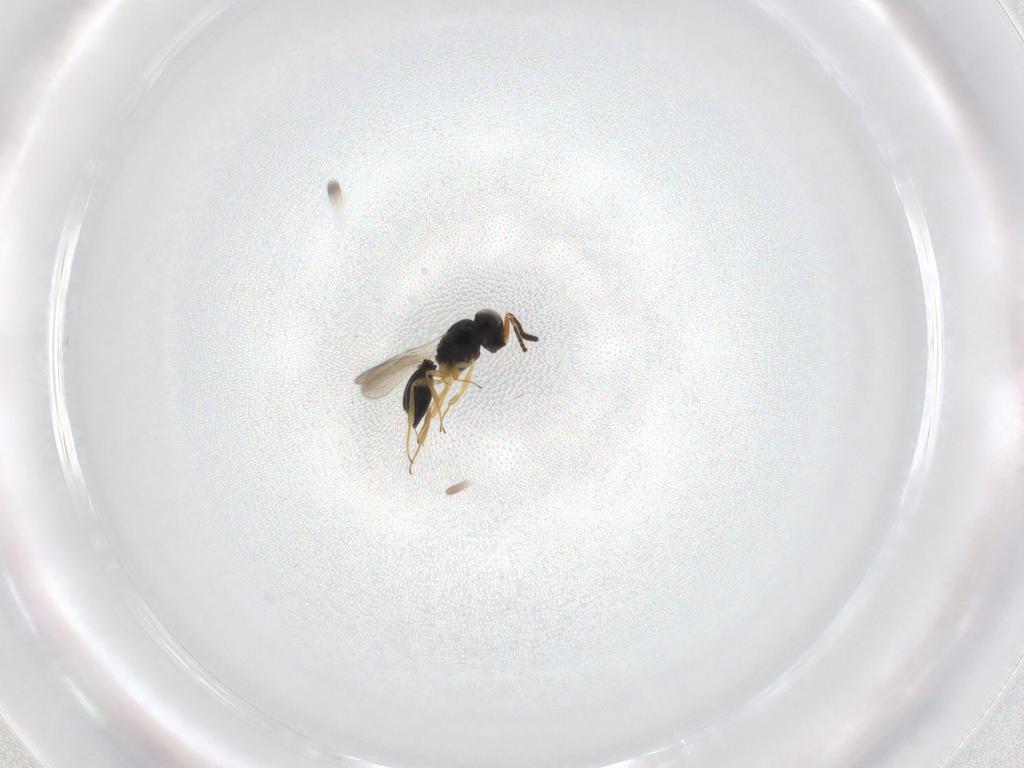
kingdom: Animalia
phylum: Arthropoda
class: Insecta
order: Hymenoptera
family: Scelionidae
